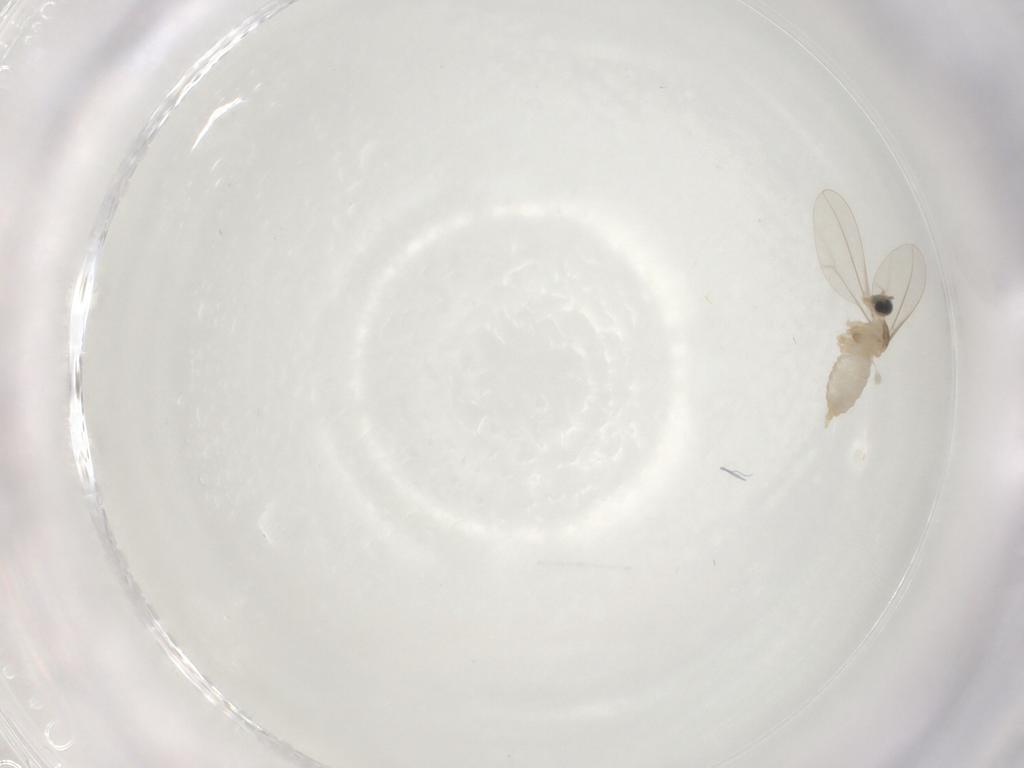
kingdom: Animalia
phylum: Arthropoda
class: Insecta
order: Diptera
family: Cecidomyiidae
